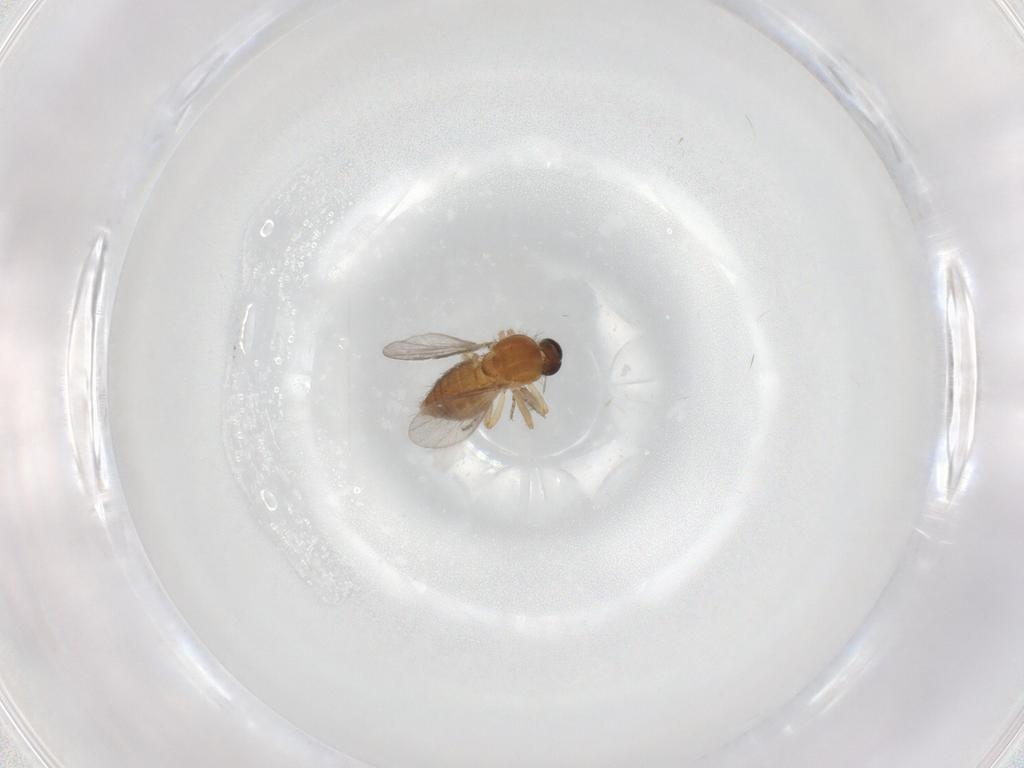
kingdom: Animalia
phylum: Arthropoda
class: Insecta
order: Diptera
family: Ceratopogonidae
